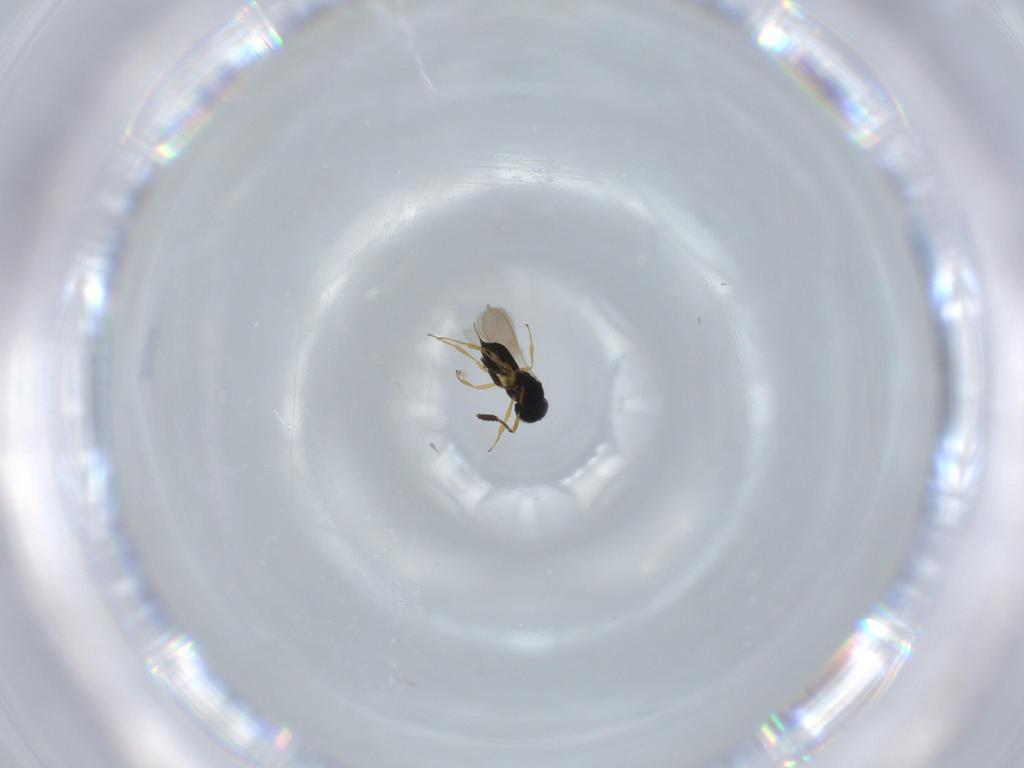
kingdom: Animalia
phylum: Arthropoda
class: Insecta
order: Hymenoptera
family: Scelionidae
